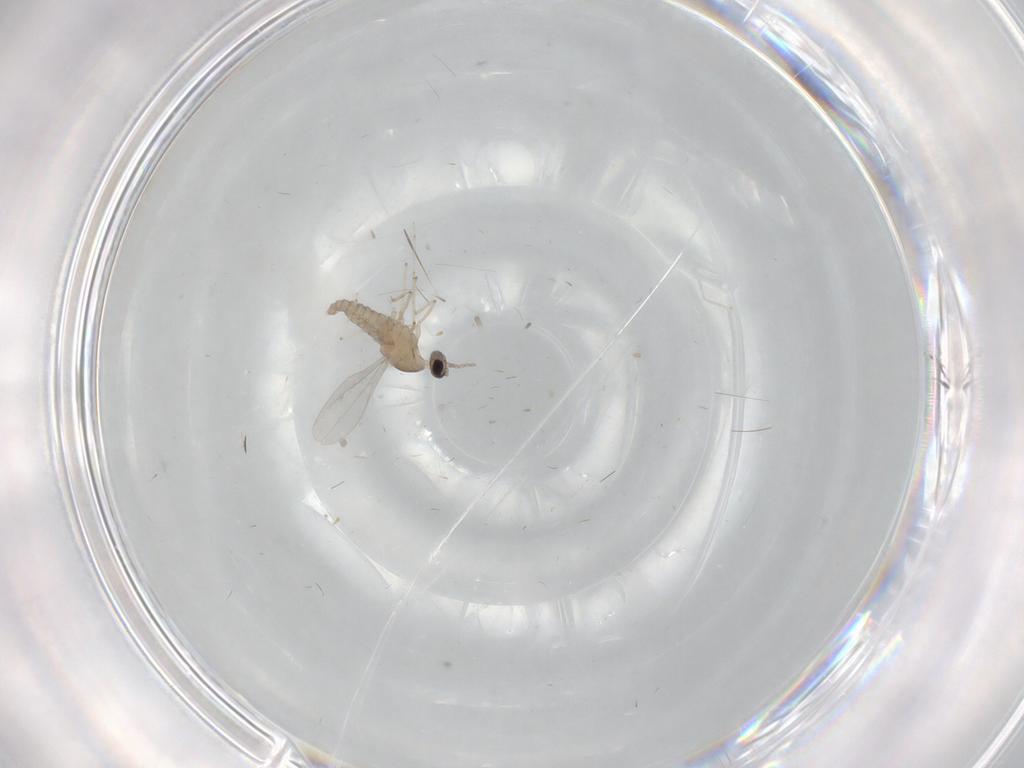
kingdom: Animalia
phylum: Arthropoda
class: Insecta
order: Diptera
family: Cecidomyiidae
